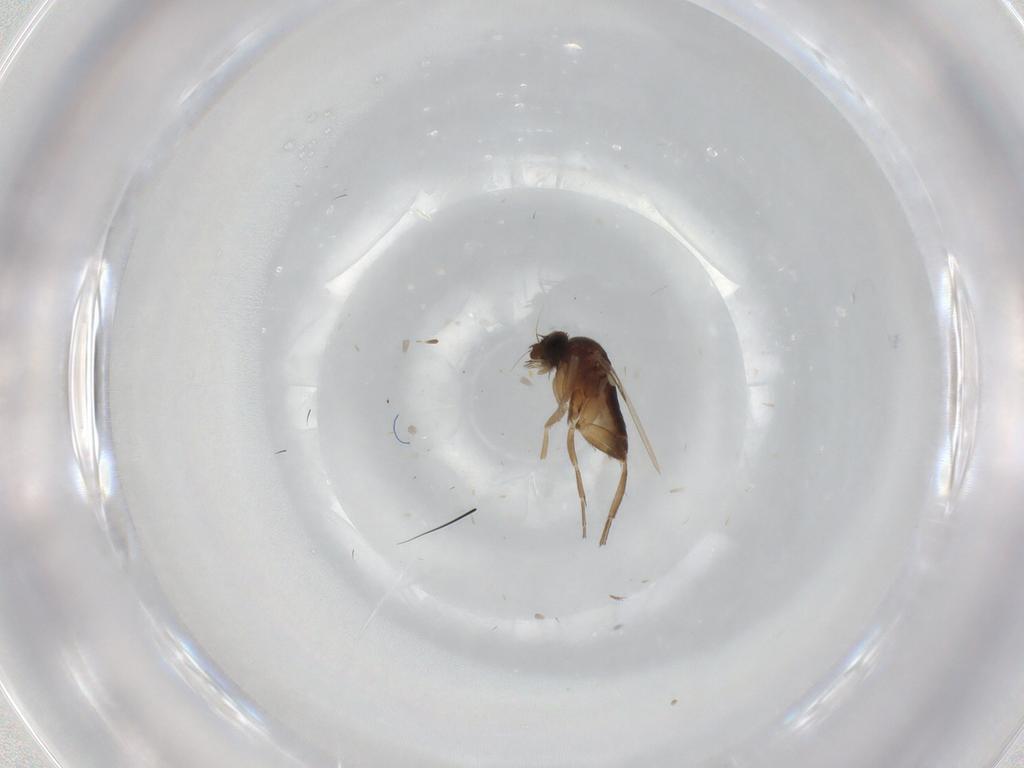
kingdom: Animalia
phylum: Arthropoda
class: Insecta
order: Diptera
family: Phoridae
